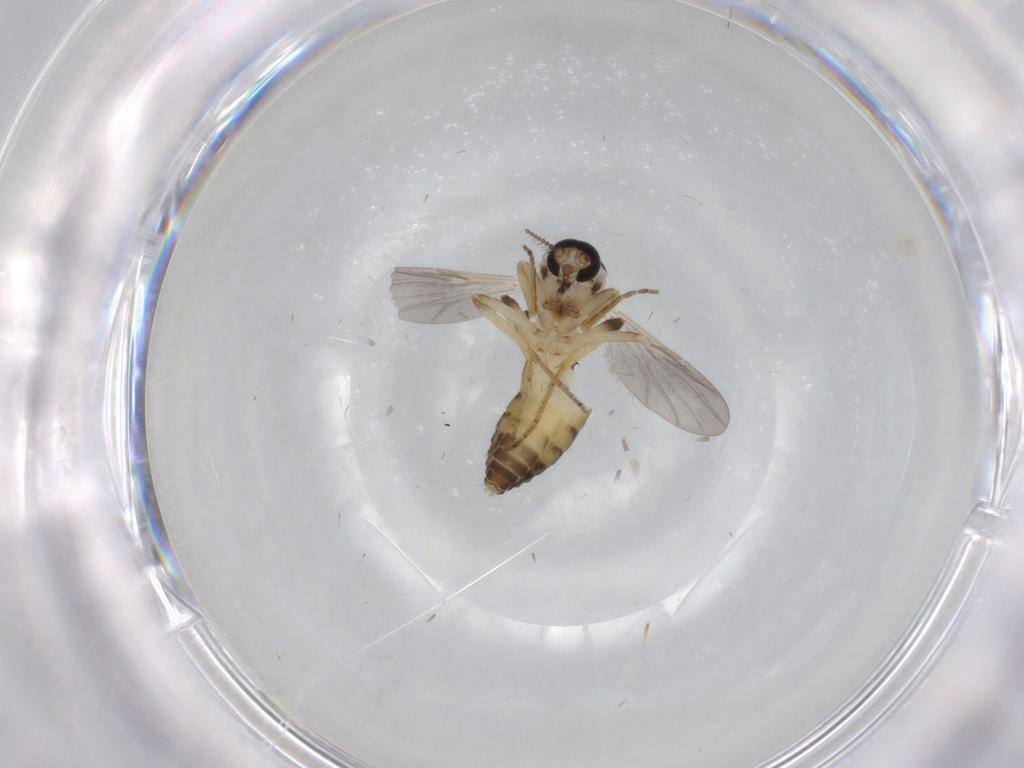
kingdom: Animalia
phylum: Arthropoda
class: Insecta
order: Diptera
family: Ceratopogonidae
